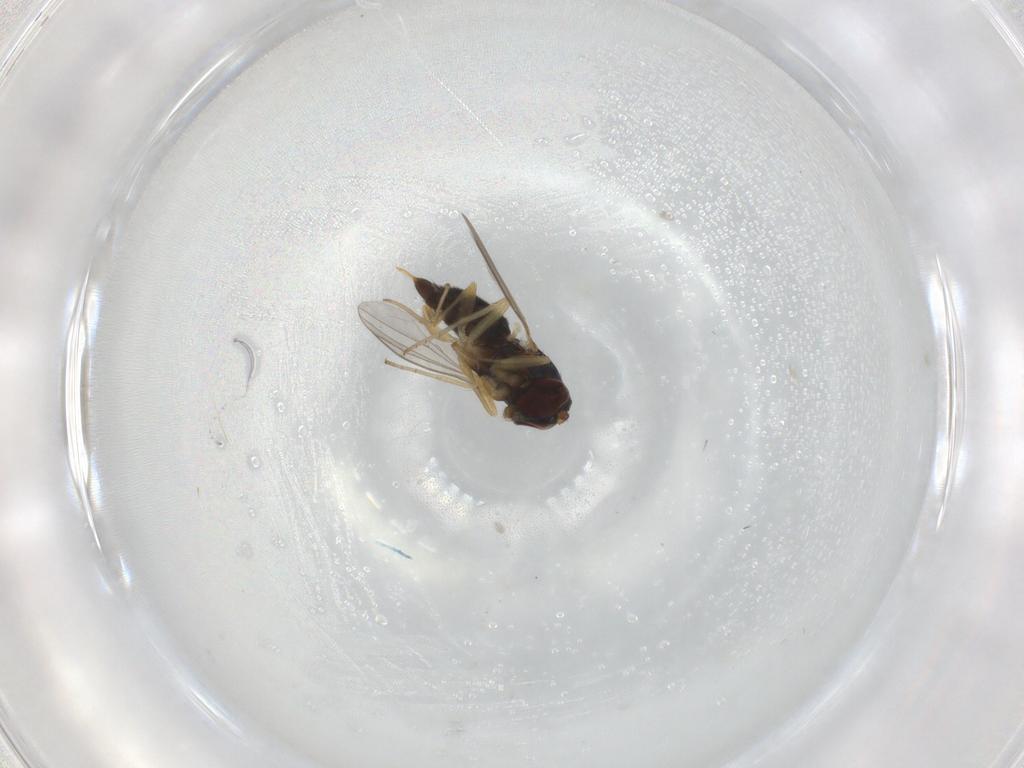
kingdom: Animalia
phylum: Arthropoda
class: Insecta
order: Diptera
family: Dolichopodidae
